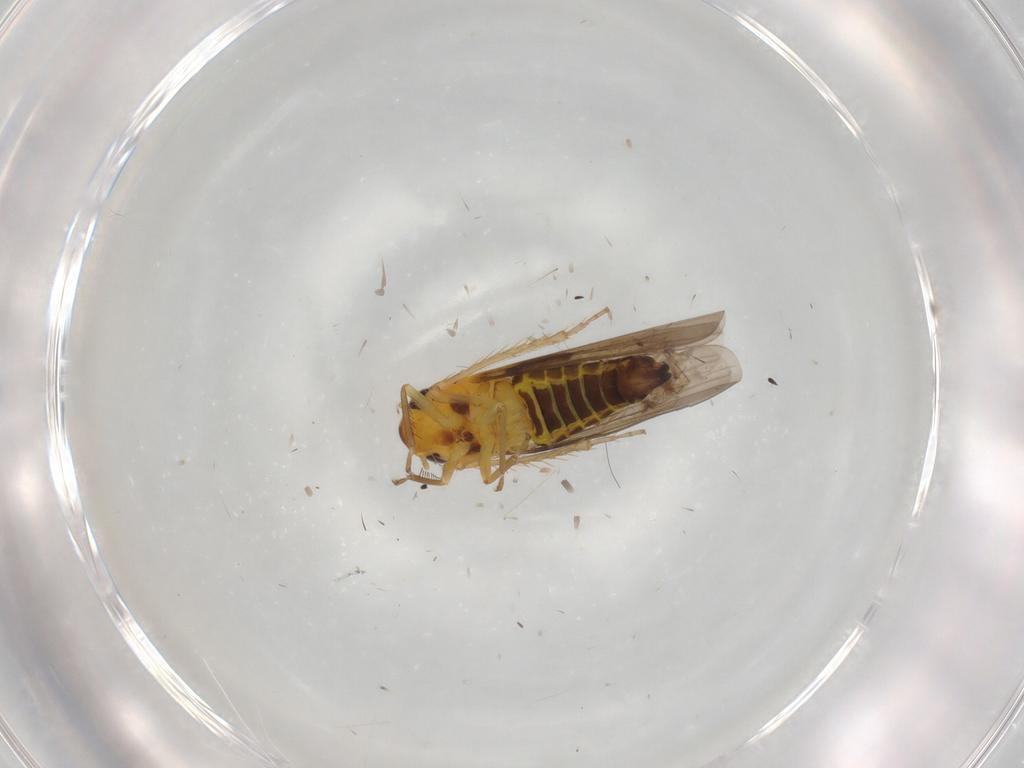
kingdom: Animalia
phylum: Arthropoda
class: Insecta
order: Hemiptera
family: Cicadellidae
